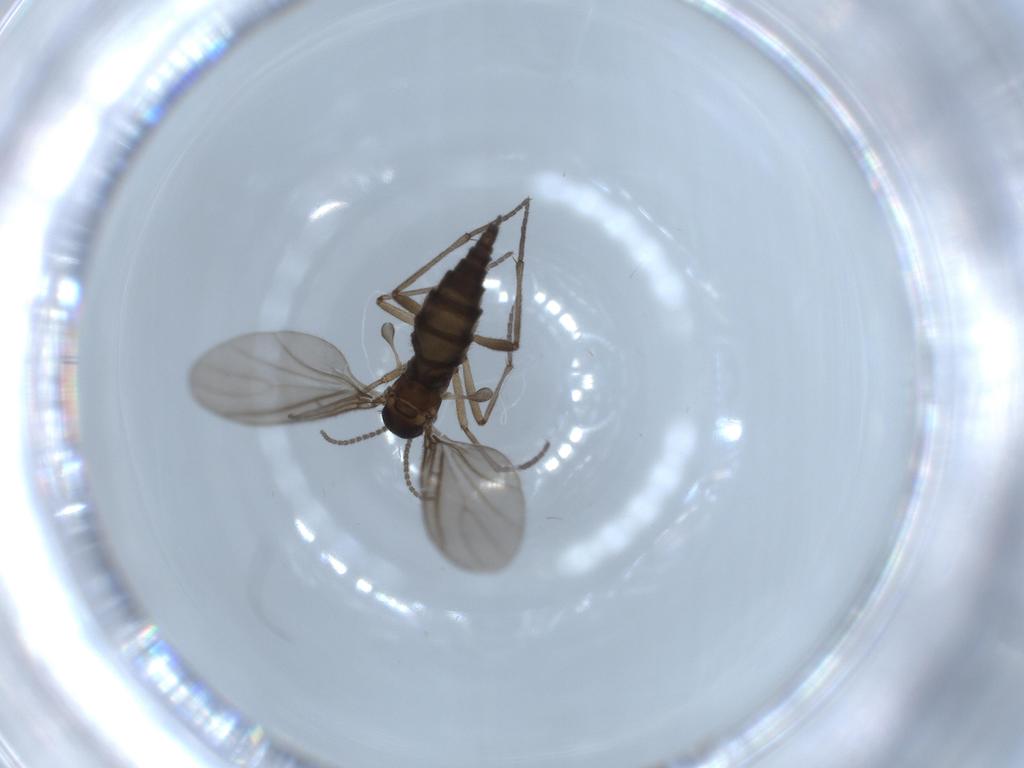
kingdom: Animalia
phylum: Arthropoda
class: Insecta
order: Diptera
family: Sciaridae
